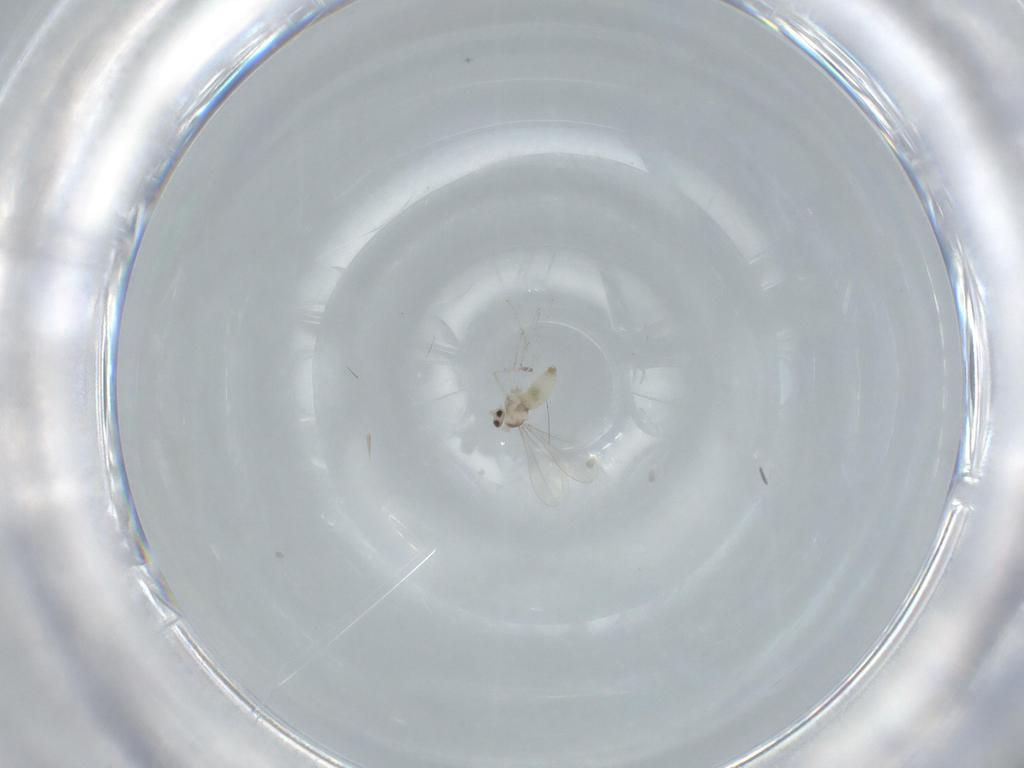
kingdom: Animalia
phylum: Arthropoda
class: Insecta
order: Diptera
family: Cecidomyiidae
